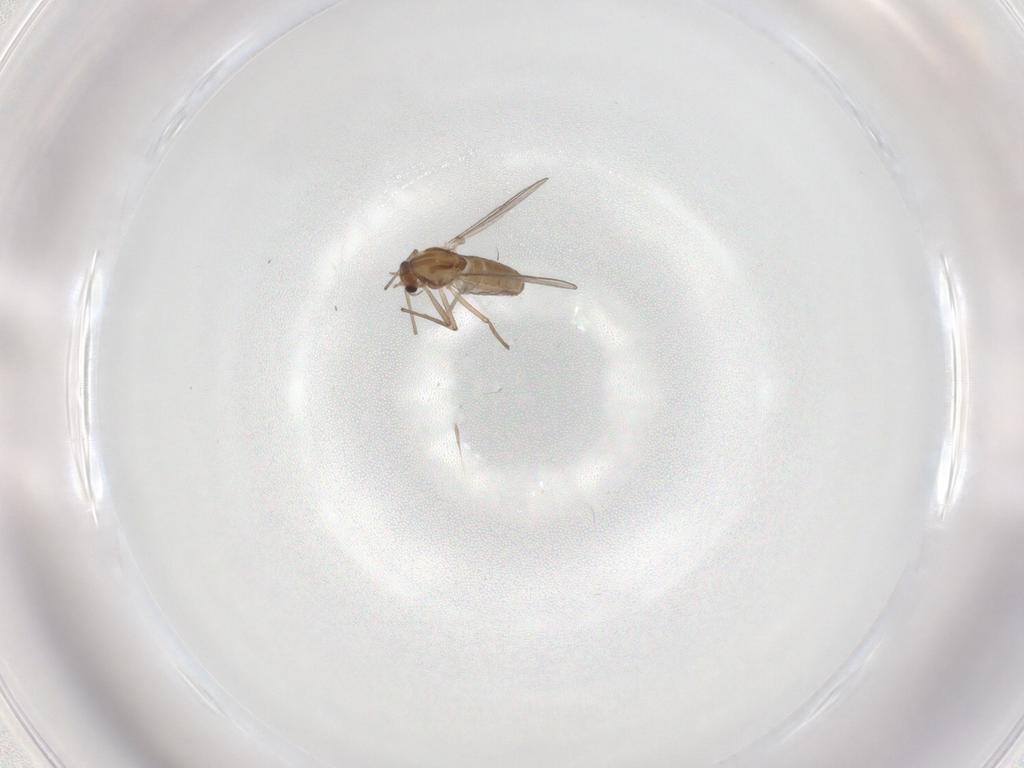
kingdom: Animalia
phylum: Arthropoda
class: Insecta
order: Diptera
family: Chironomidae
